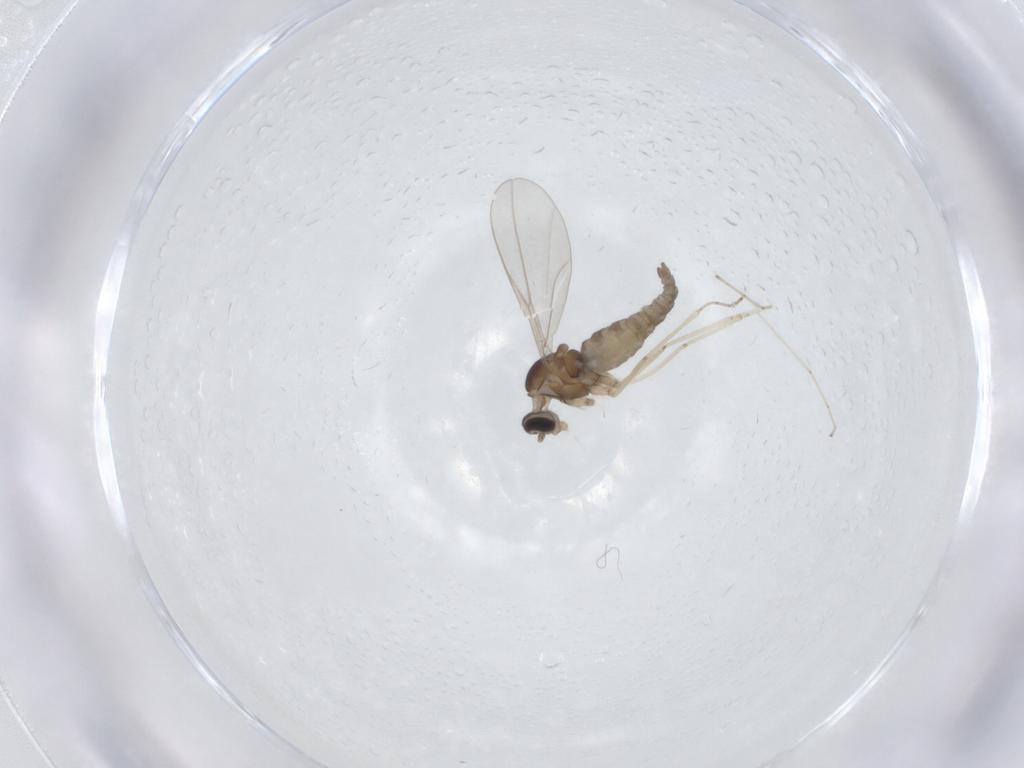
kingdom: Animalia
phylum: Arthropoda
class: Insecta
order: Diptera
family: Cecidomyiidae
